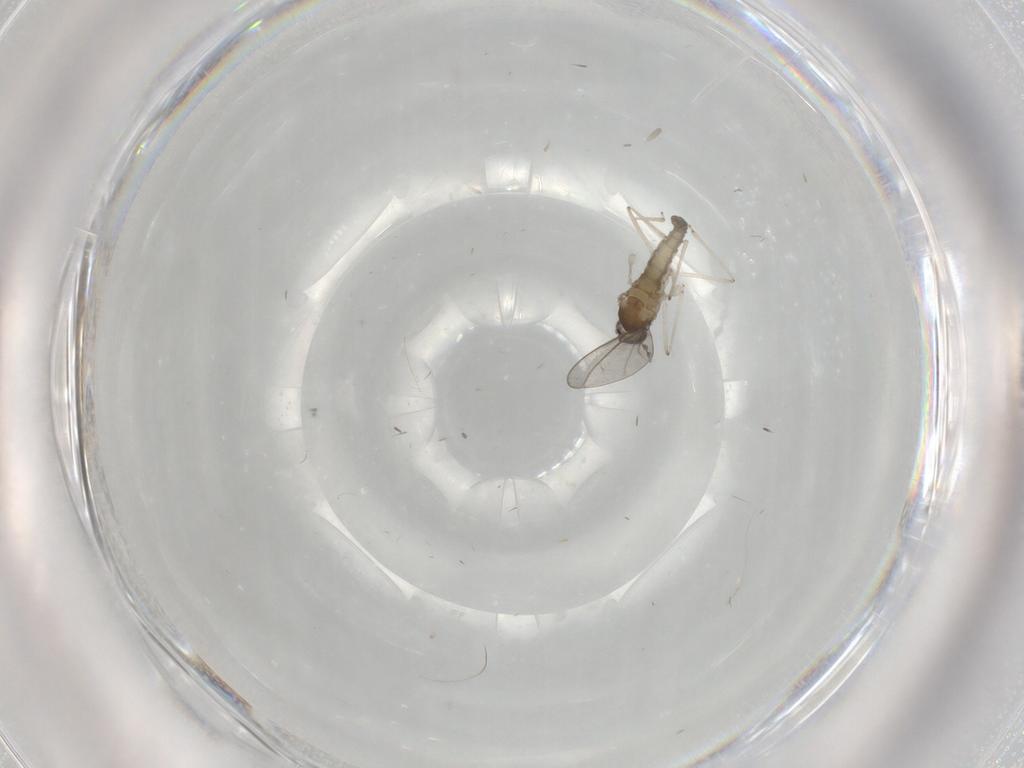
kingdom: Animalia
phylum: Arthropoda
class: Insecta
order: Diptera
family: Cecidomyiidae
